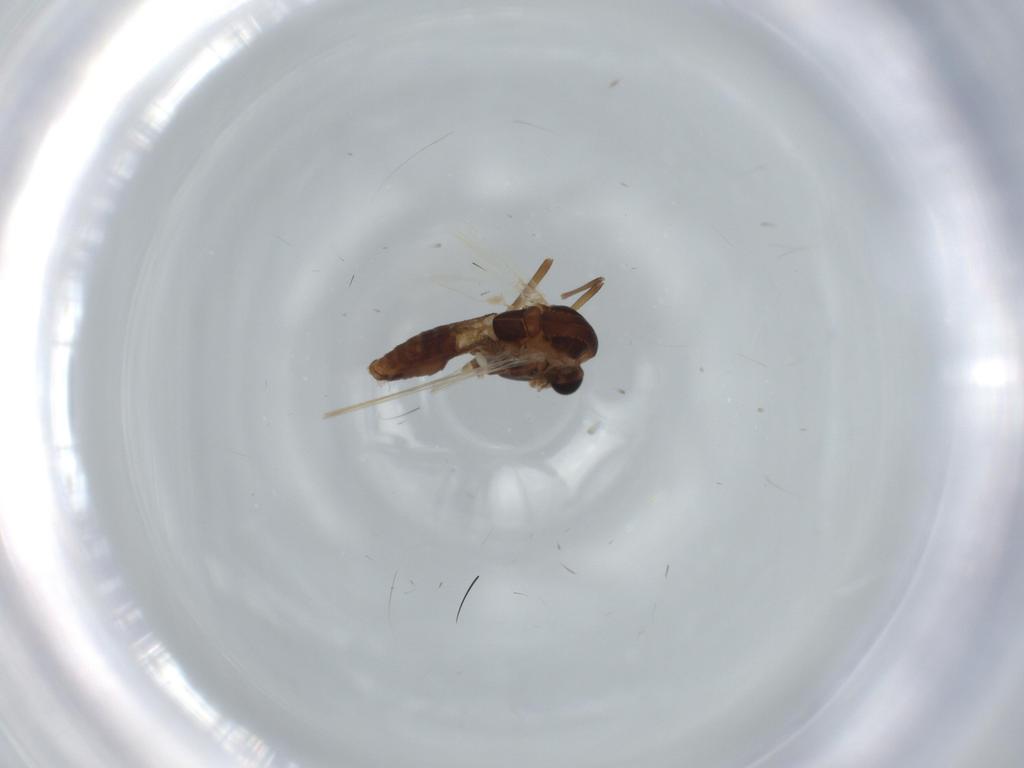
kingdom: Animalia
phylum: Arthropoda
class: Insecta
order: Diptera
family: Chironomidae
